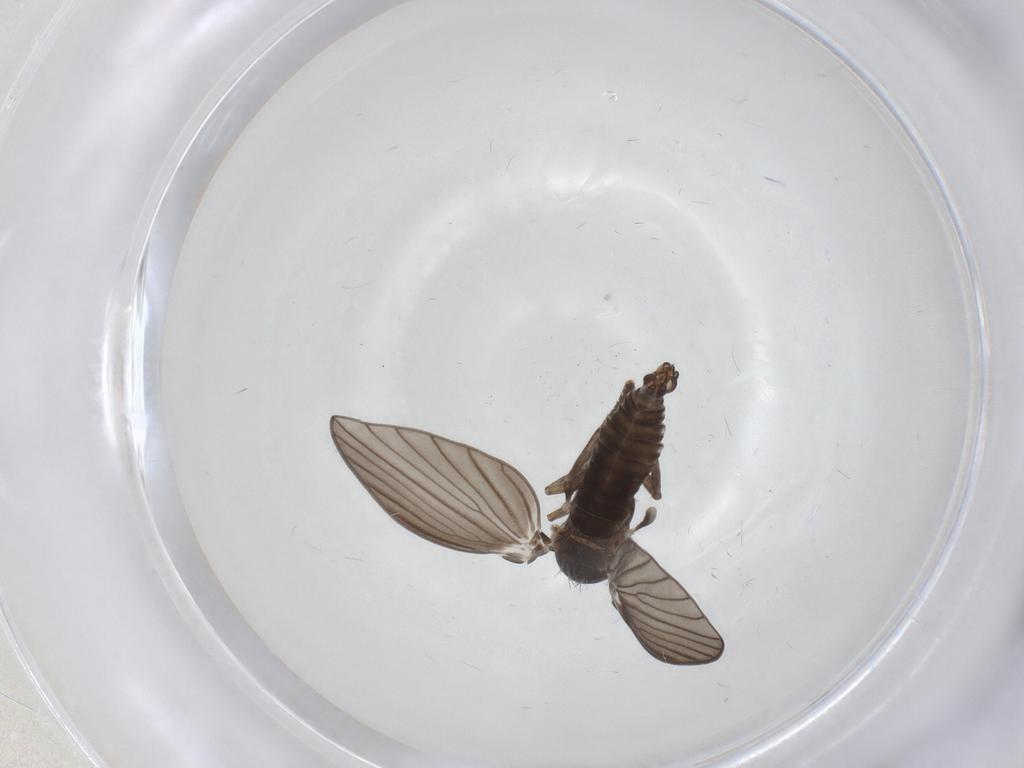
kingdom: Animalia
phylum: Arthropoda
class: Insecta
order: Diptera
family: Psychodidae
